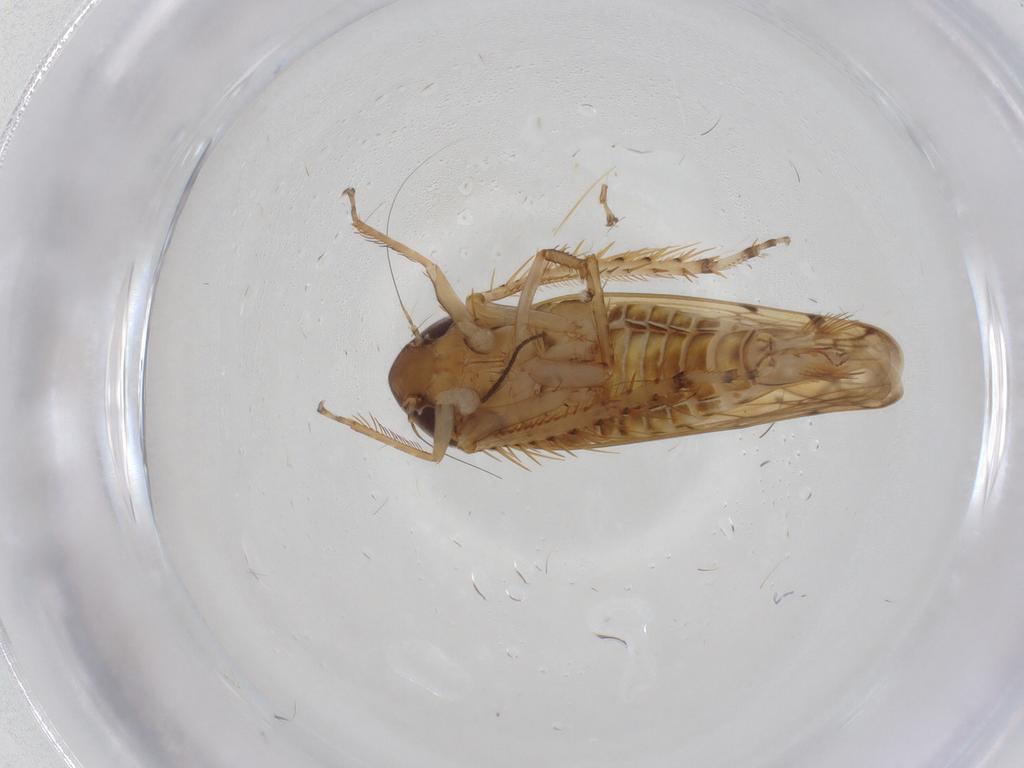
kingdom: Animalia
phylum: Arthropoda
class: Insecta
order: Hemiptera
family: Cicadellidae
